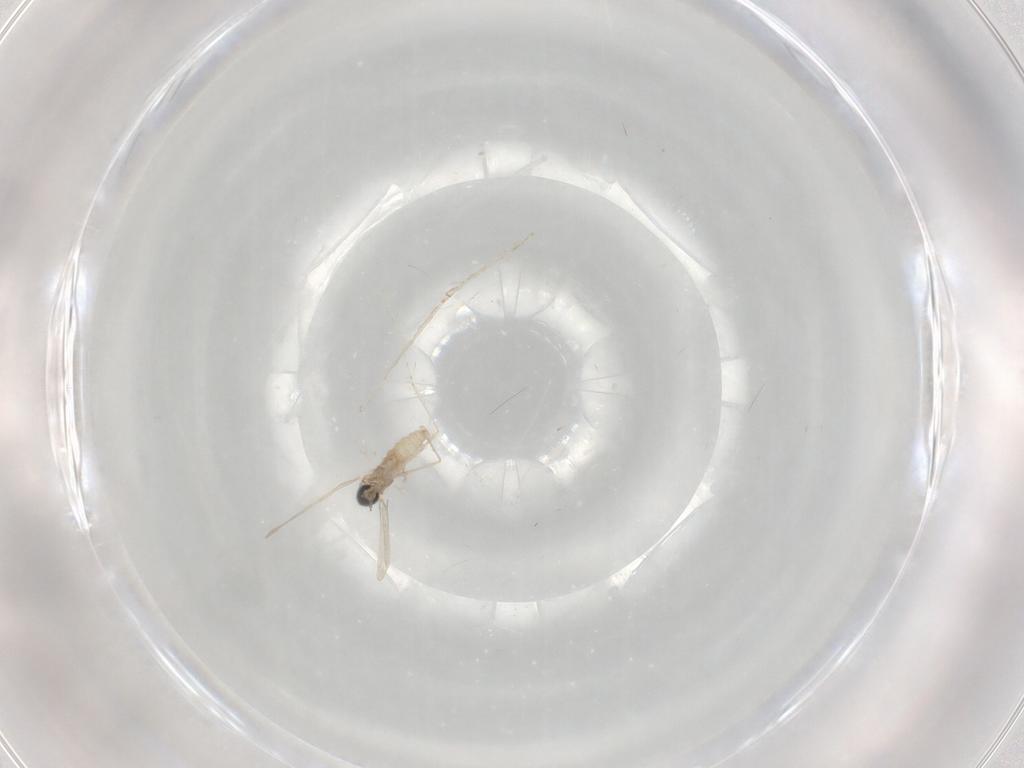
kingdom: Animalia
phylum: Arthropoda
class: Insecta
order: Diptera
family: Cecidomyiidae
